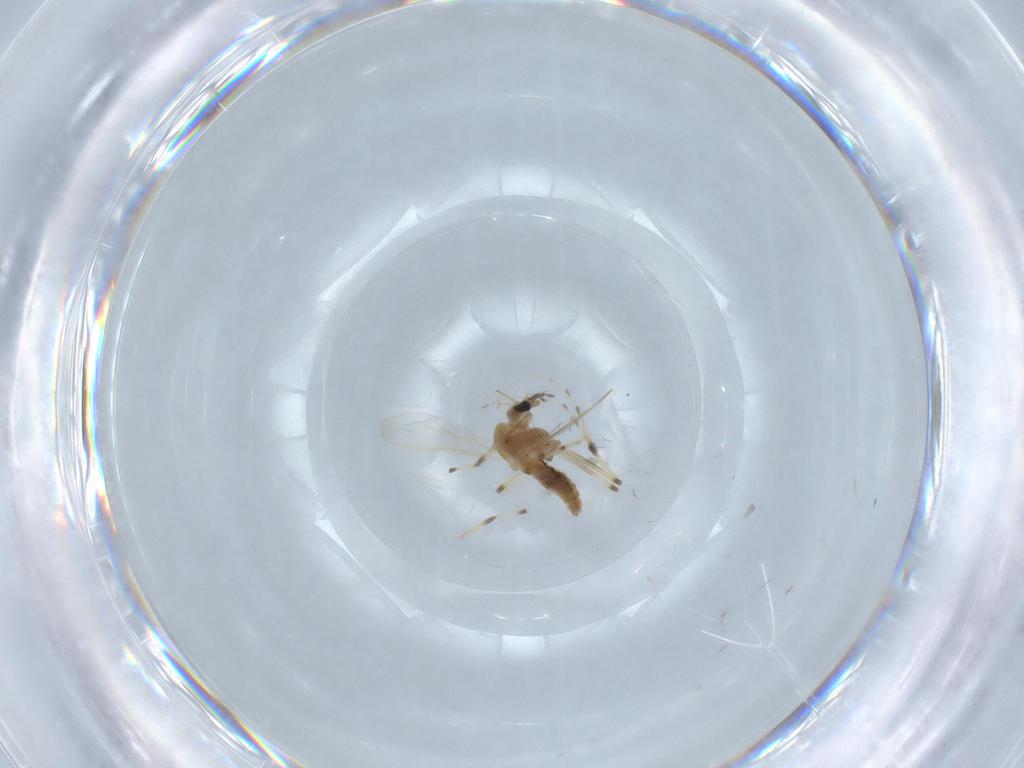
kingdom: Animalia
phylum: Arthropoda
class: Insecta
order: Diptera
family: Chironomidae
